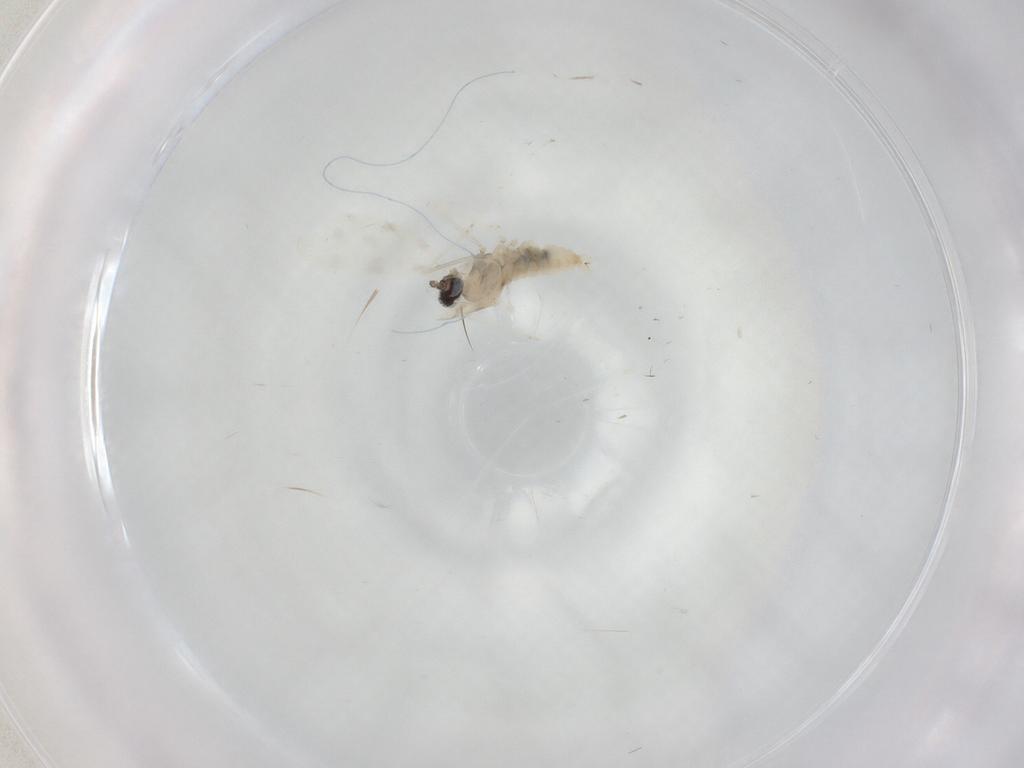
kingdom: Animalia
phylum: Arthropoda
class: Insecta
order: Diptera
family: Cecidomyiidae
